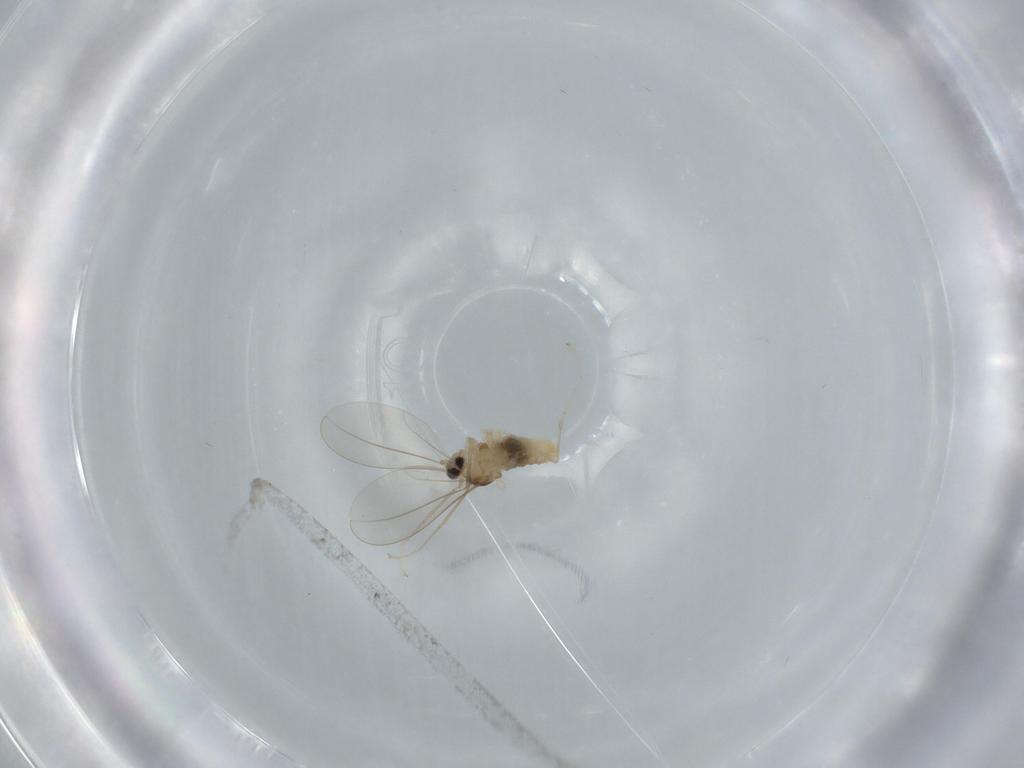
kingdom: Animalia
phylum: Arthropoda
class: Insecta
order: Diptera
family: Cecidomyiidae
